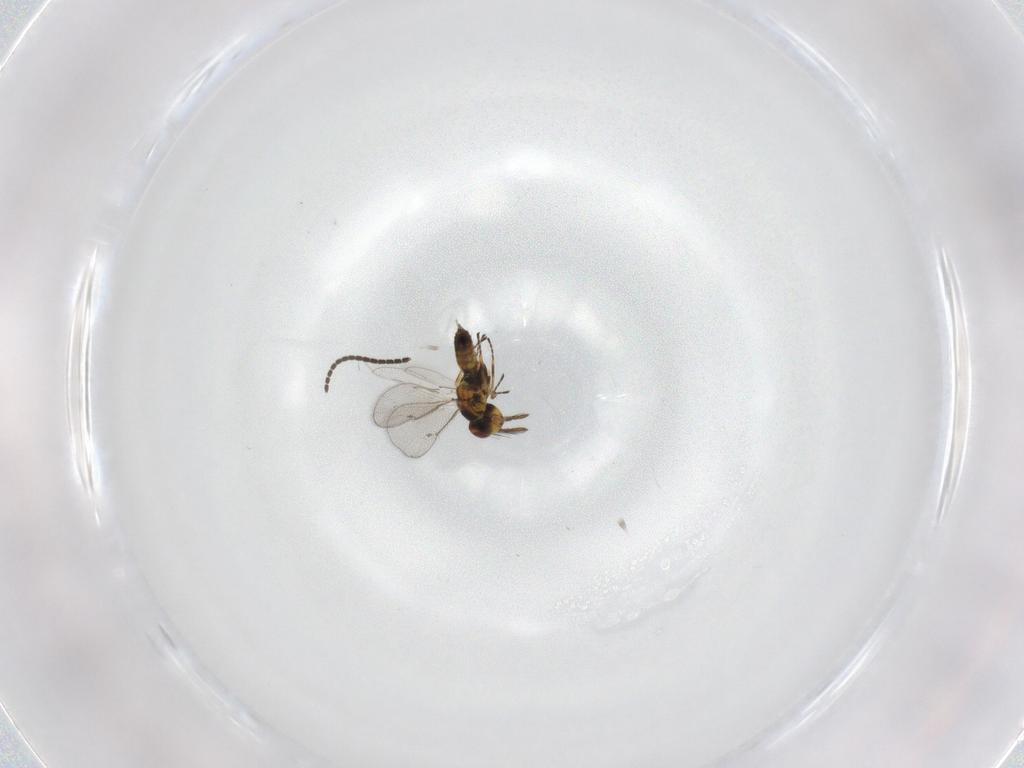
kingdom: Animalia
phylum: Arthropoda
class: Insecta
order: Hymenoptera
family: Eulophidae
